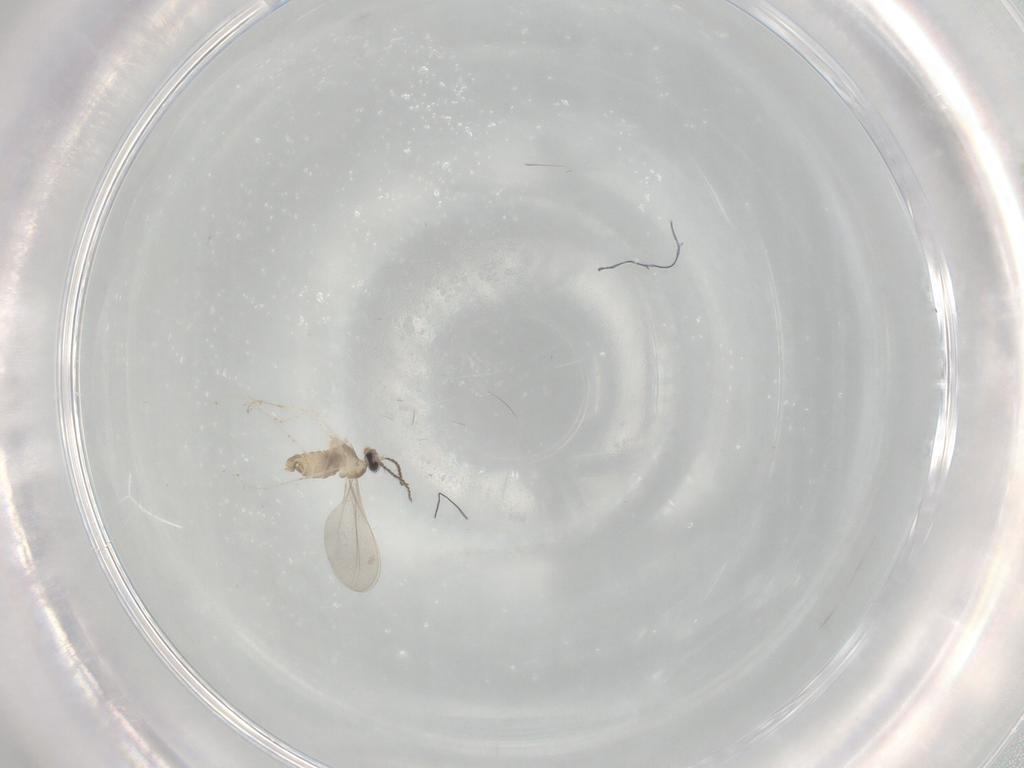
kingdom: Animalia
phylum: Arthropoda
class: Insecta
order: Diptera
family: Cecidomyiidae
